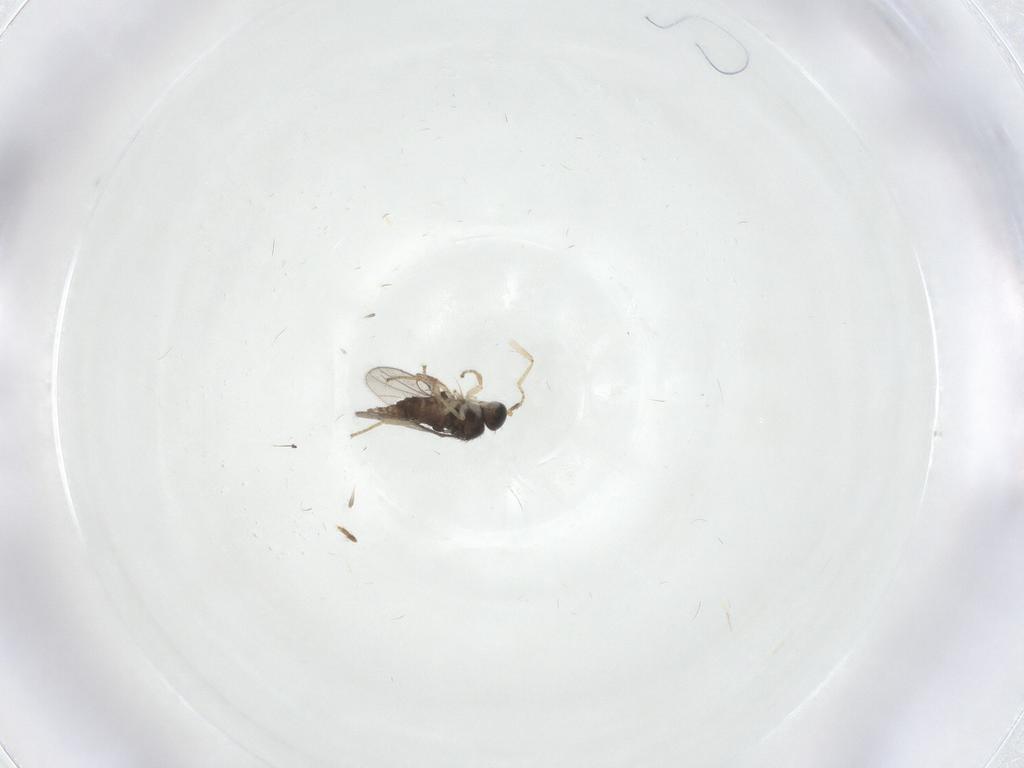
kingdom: Animalia
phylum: Arthropoda
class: Insecta
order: Diptera
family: Hybotidae
